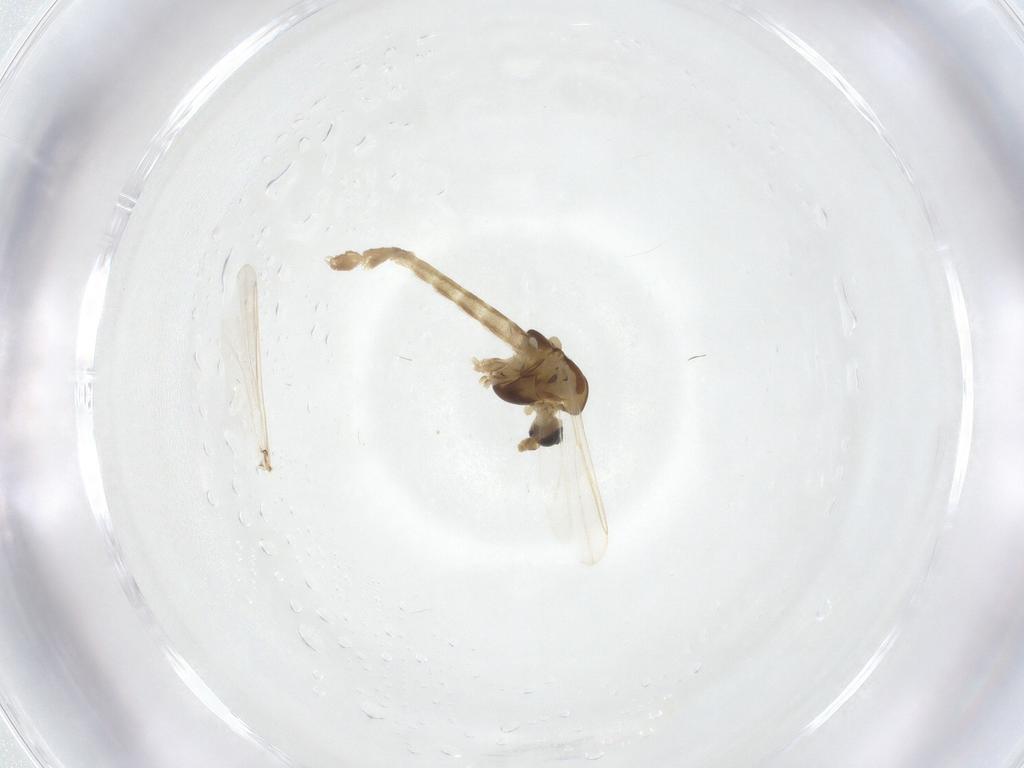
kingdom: Animalia
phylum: Arthropoda
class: Insecta
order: Diptera
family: Chironomidae
